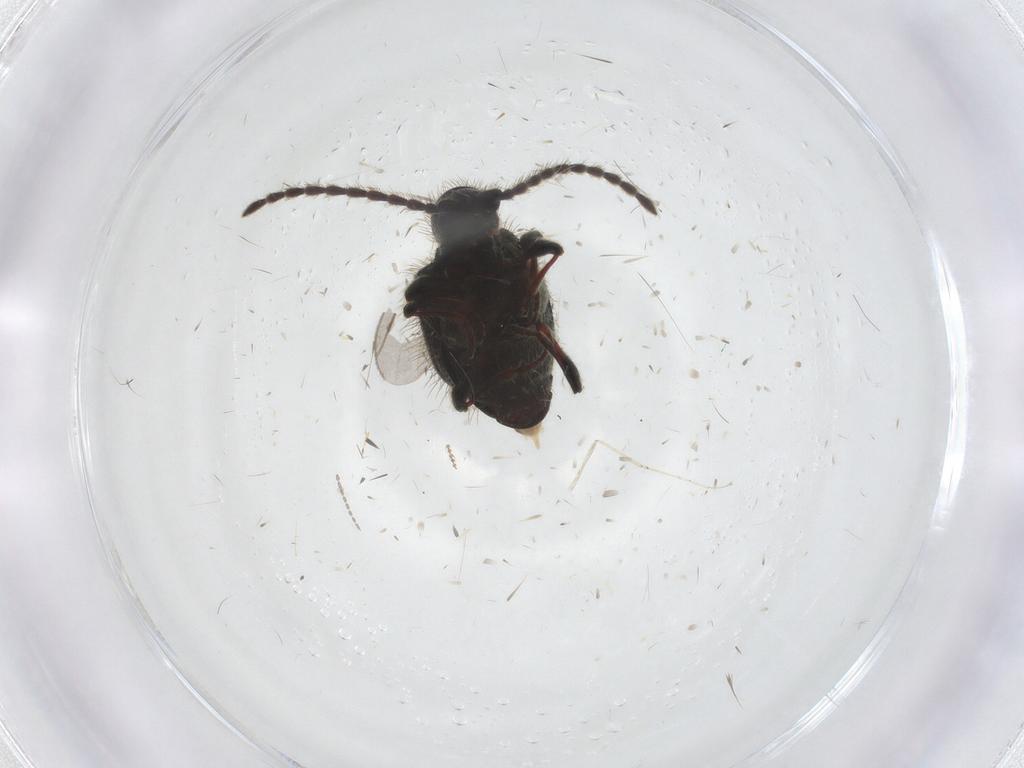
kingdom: Animalia
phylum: Arthropoda
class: Insecta
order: Coleoptera
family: Ptinidae
